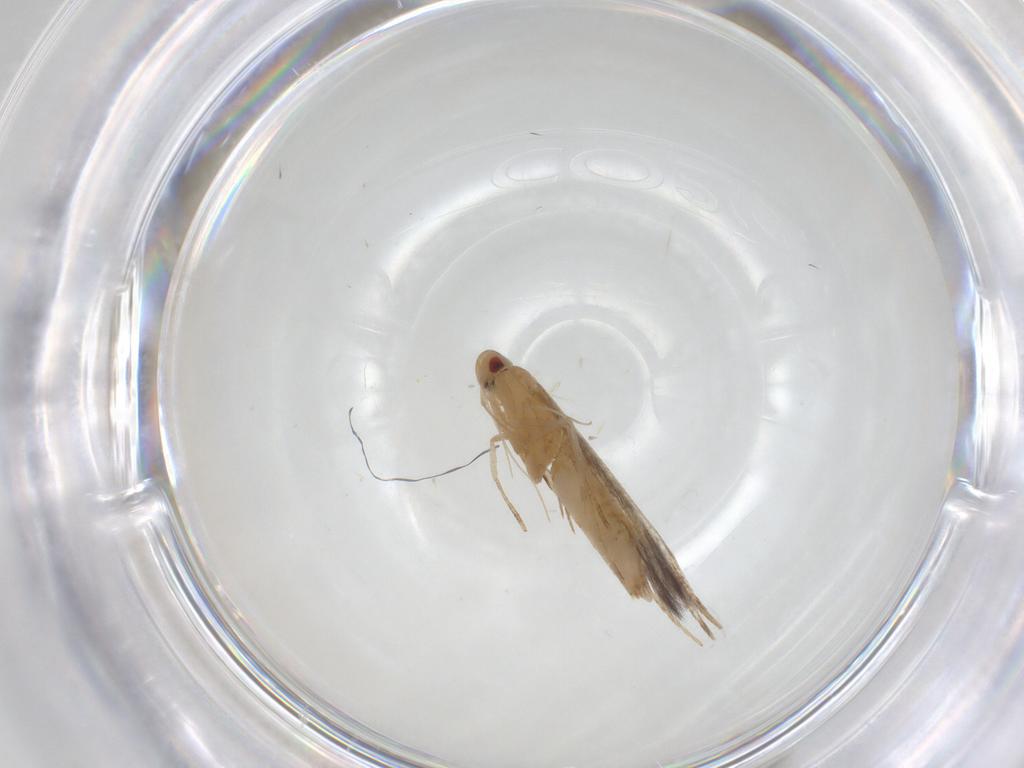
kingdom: Animalia
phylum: Arthropoda
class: Insecta
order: Lepidoptera
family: Cosmopterigidae
